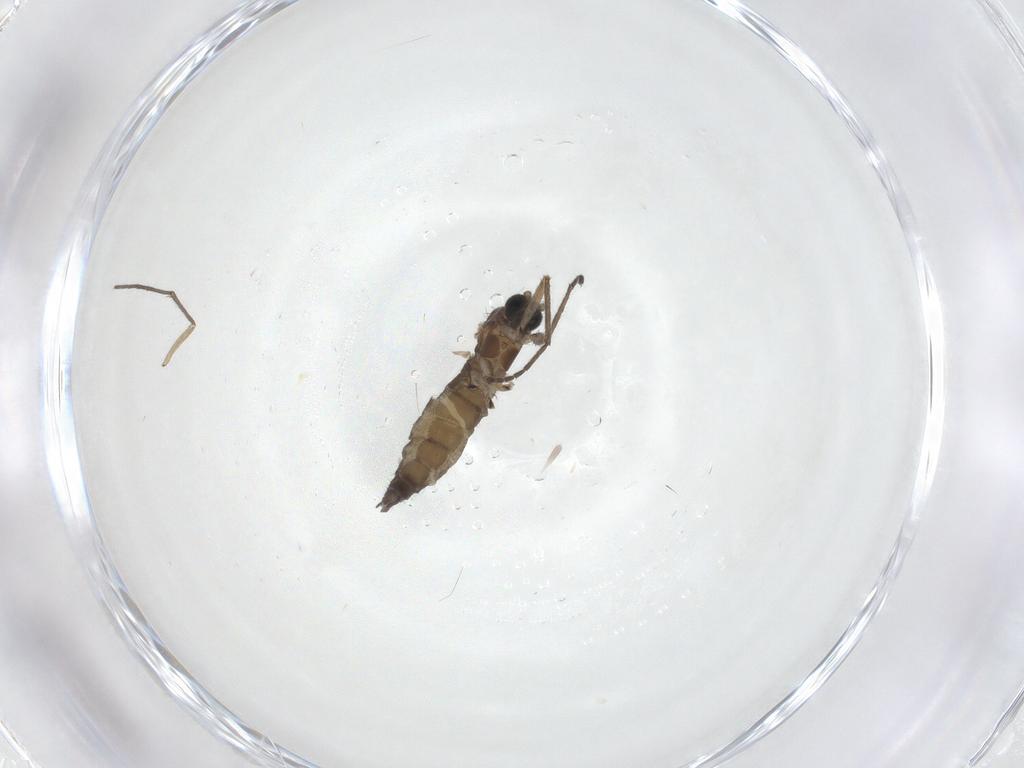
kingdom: Animalia
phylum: Arthropoda
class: Insecta
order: Diptera
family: Sciaridae
